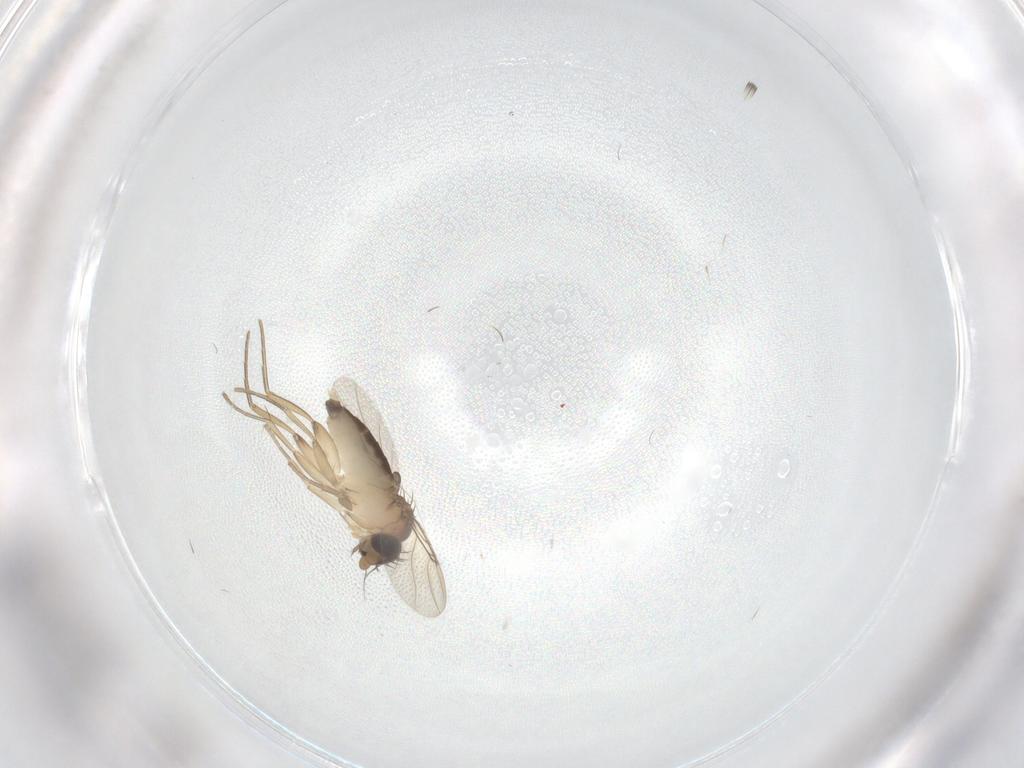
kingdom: Animalia
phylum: Arthropoda
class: Insecta
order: Diptera
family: Phoridae
